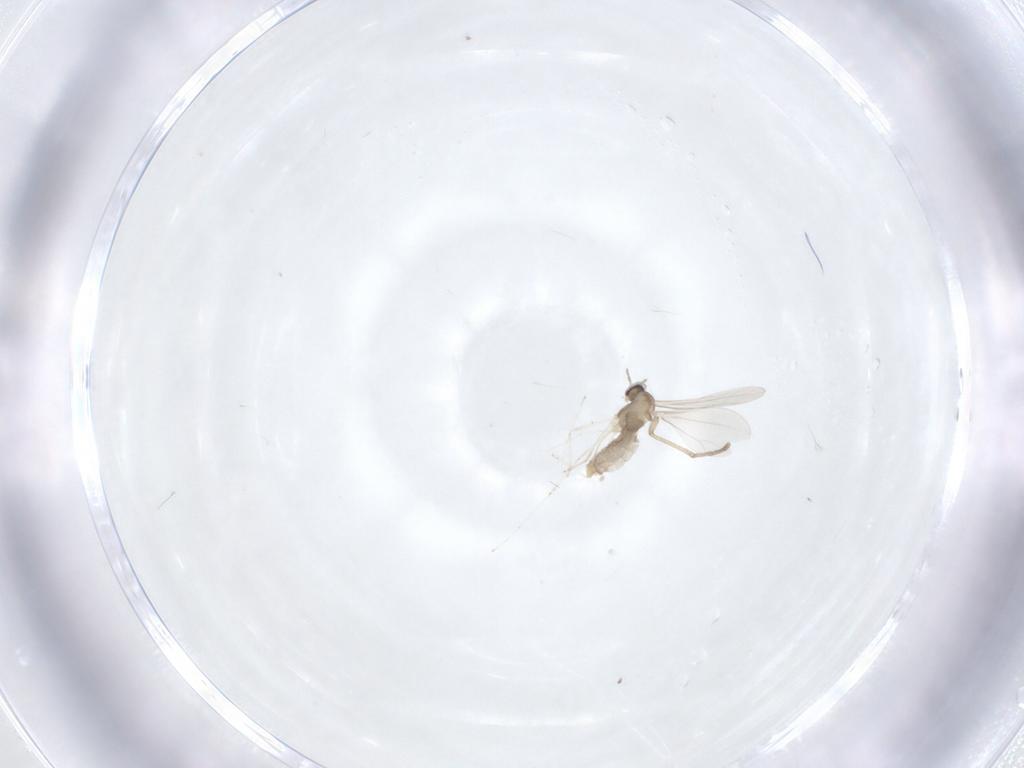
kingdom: Animalia
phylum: Arthropoda
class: Insecta
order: Diptera
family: Cecidomyiidae
